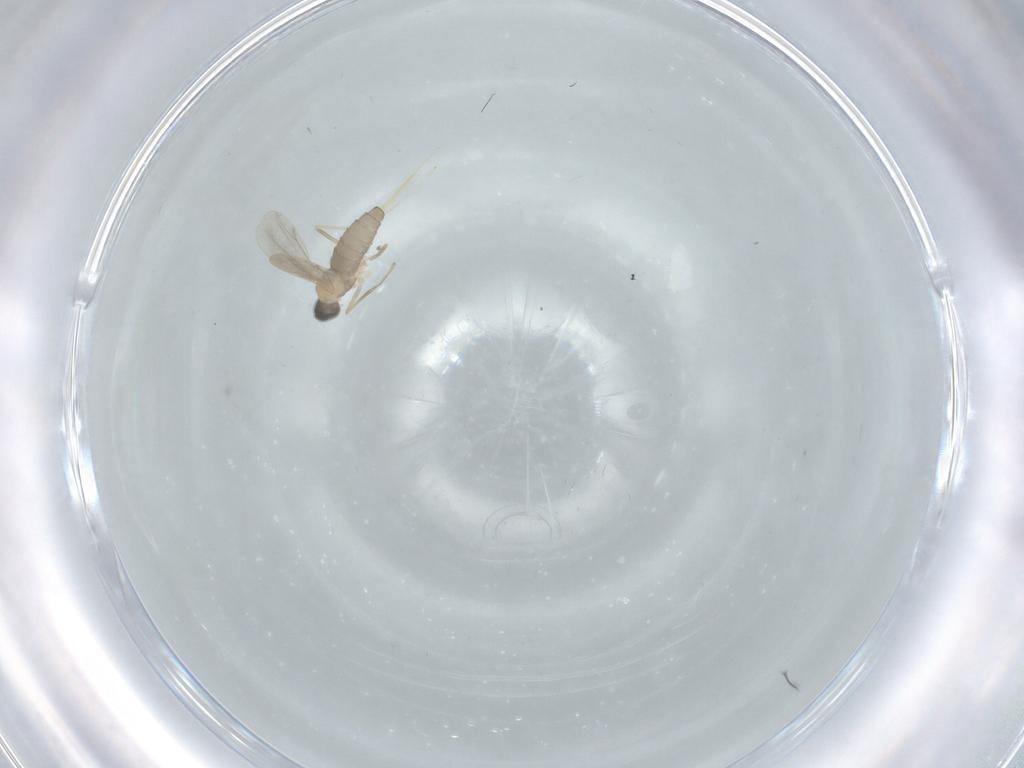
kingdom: Animalia
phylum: Arthropoda
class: Insecta
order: Diptera
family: Cecidomyiidae
